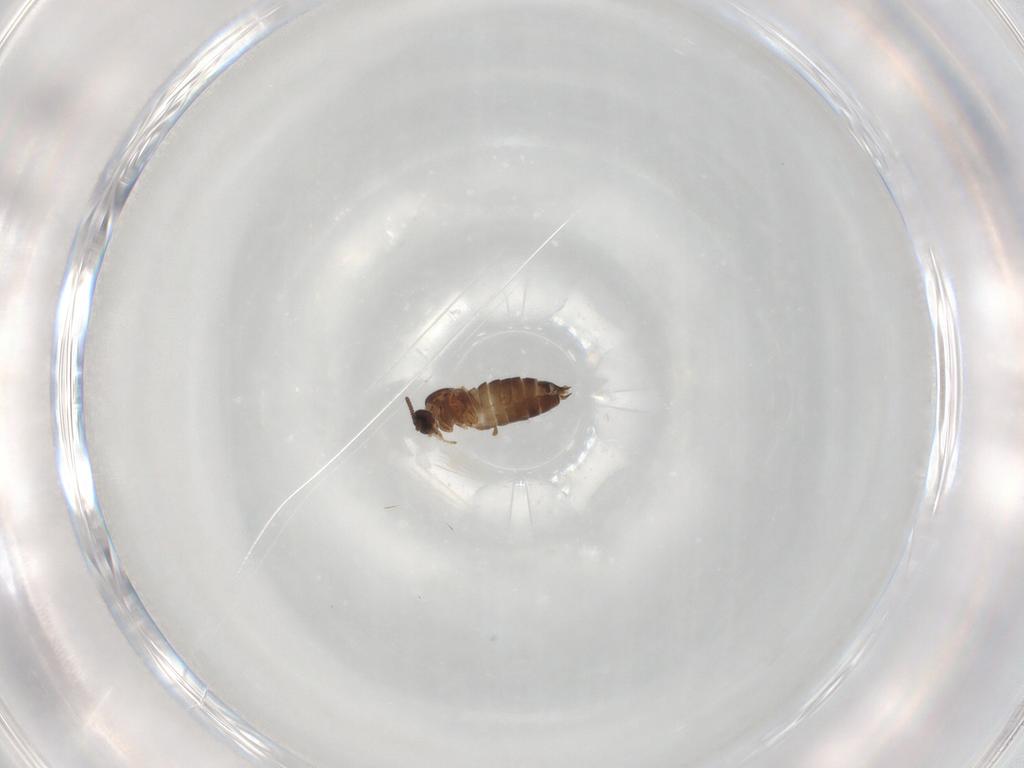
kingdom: Animalia
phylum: Arthropoda
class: Insecta
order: Diptera
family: Scatopsidae
